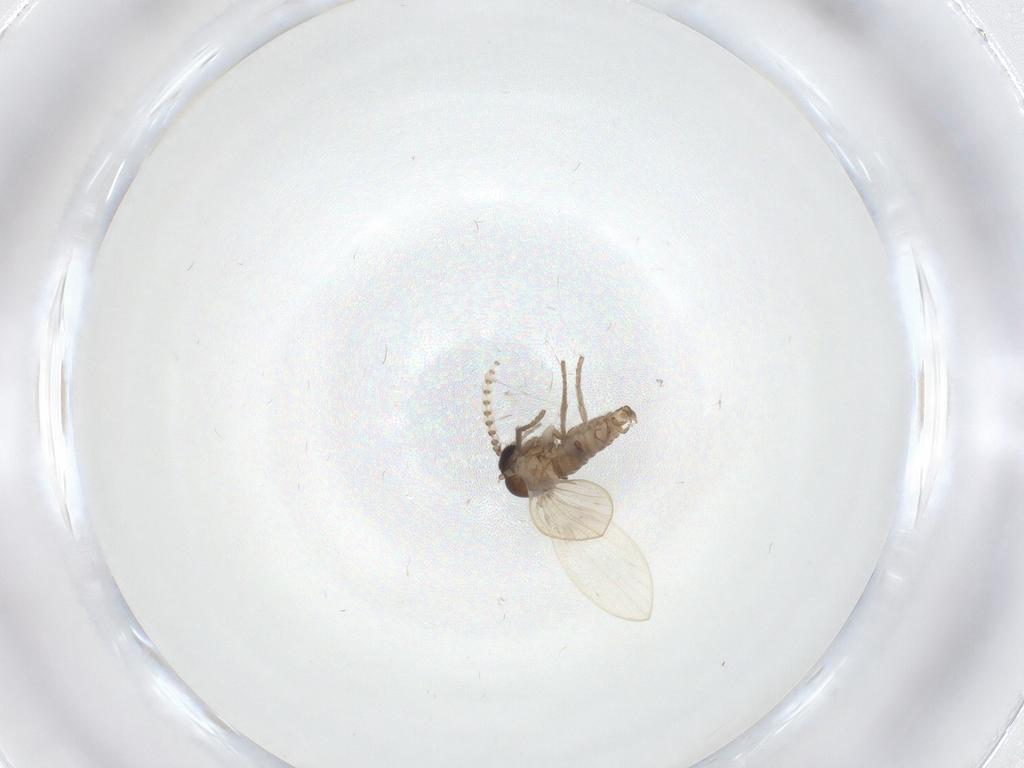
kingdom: Animalia
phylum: Arthropoda
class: Insecta
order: Diptera
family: Psychodidae
